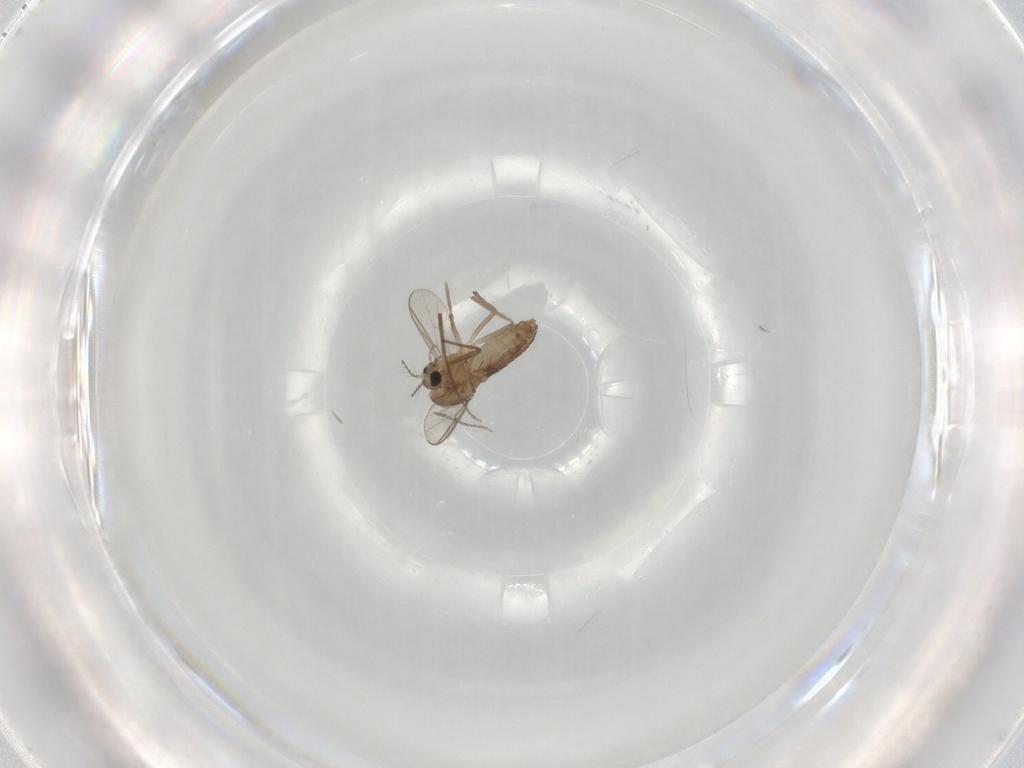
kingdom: Animalia
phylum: Arthropoda
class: Insecta
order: Diptera
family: Chironomidae
